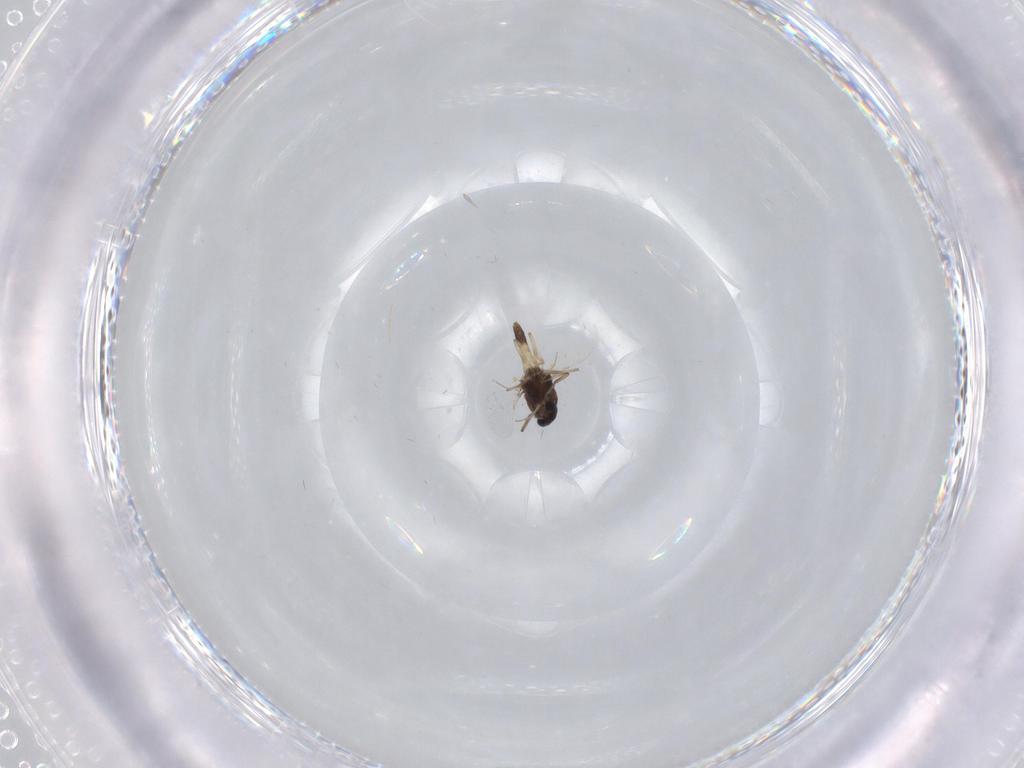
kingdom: Animalia
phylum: Arthropoda
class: Insecta
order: Diptera
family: Chironomidae
